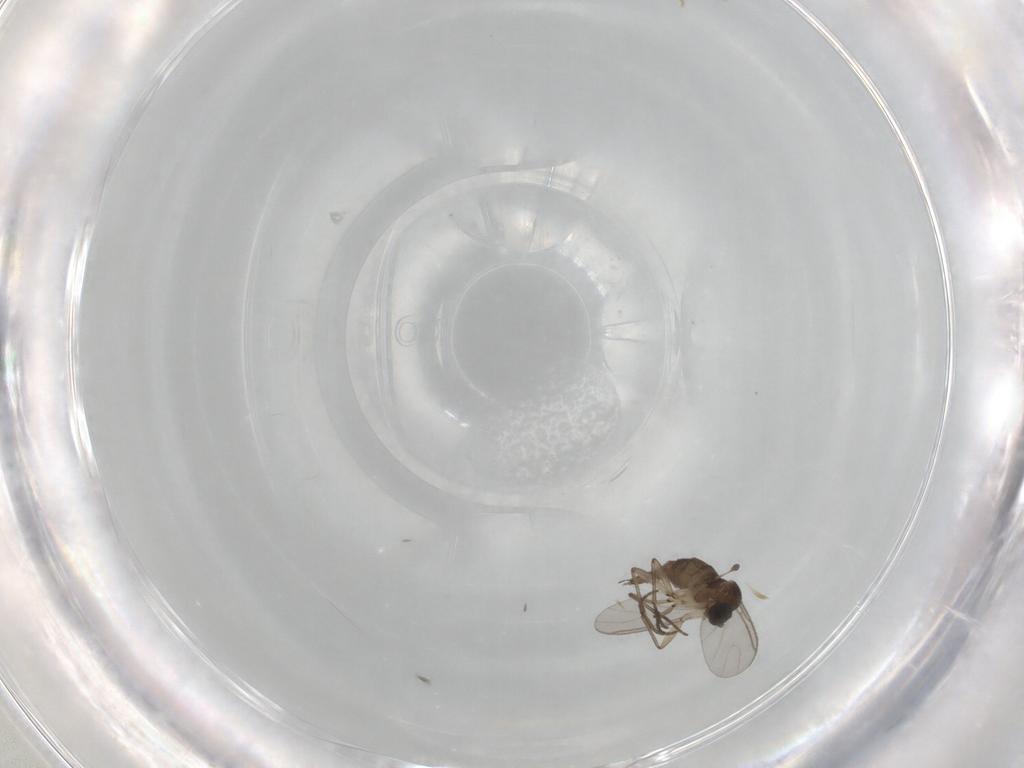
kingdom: Animalia
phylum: Arthropoda
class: Insecta
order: Diptera
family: Sciaridae
